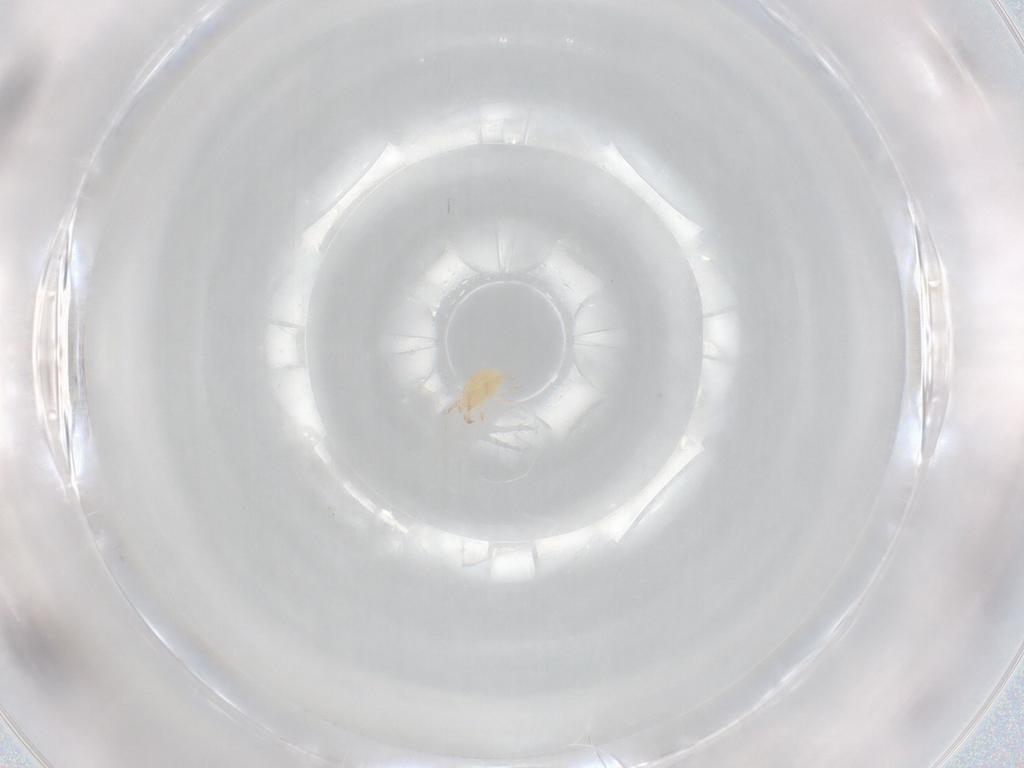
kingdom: Animalia
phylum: Arthropoda
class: Arachnida
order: Trombidiformes
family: Stigmaeidae
